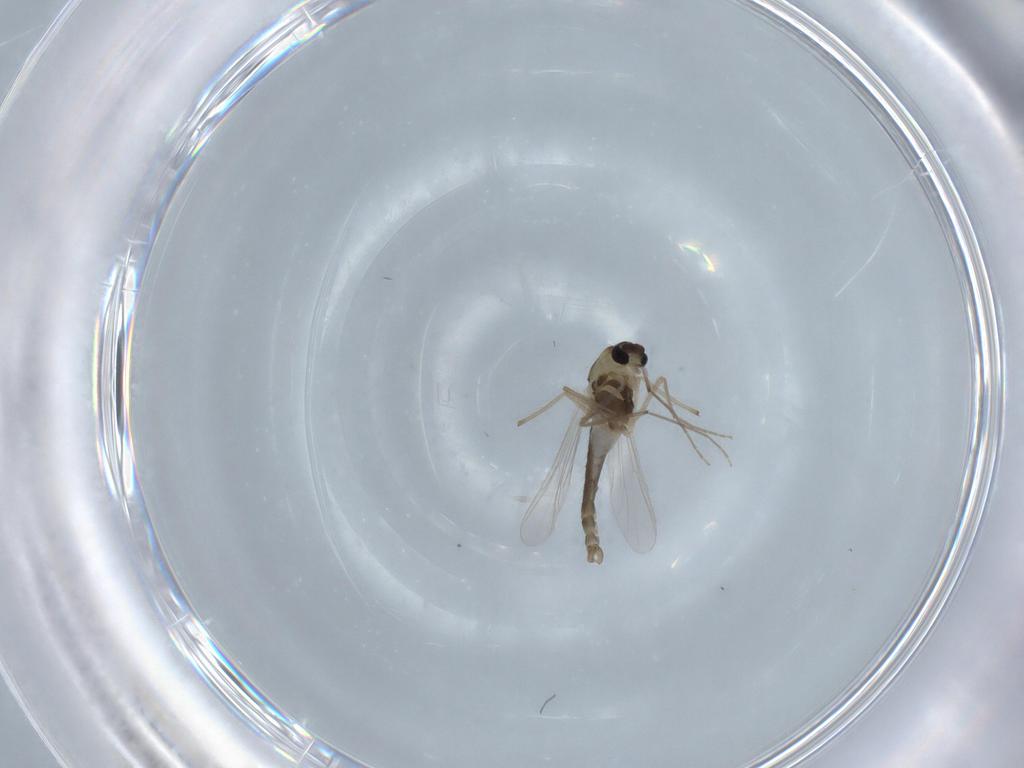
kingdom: Animalia
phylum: Arthropoda
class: Insecta
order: Diptera
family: Chironomidae
